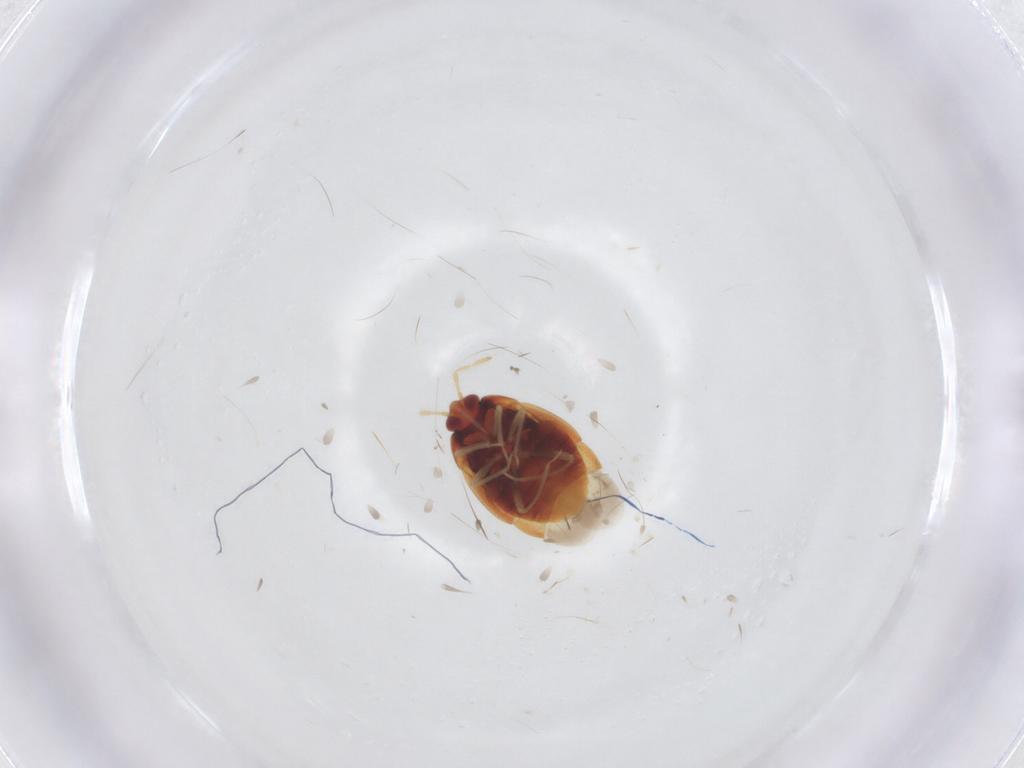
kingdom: Animalia
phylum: Arthropoda
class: Insecta
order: Hemiptera
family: Anthocoridae
